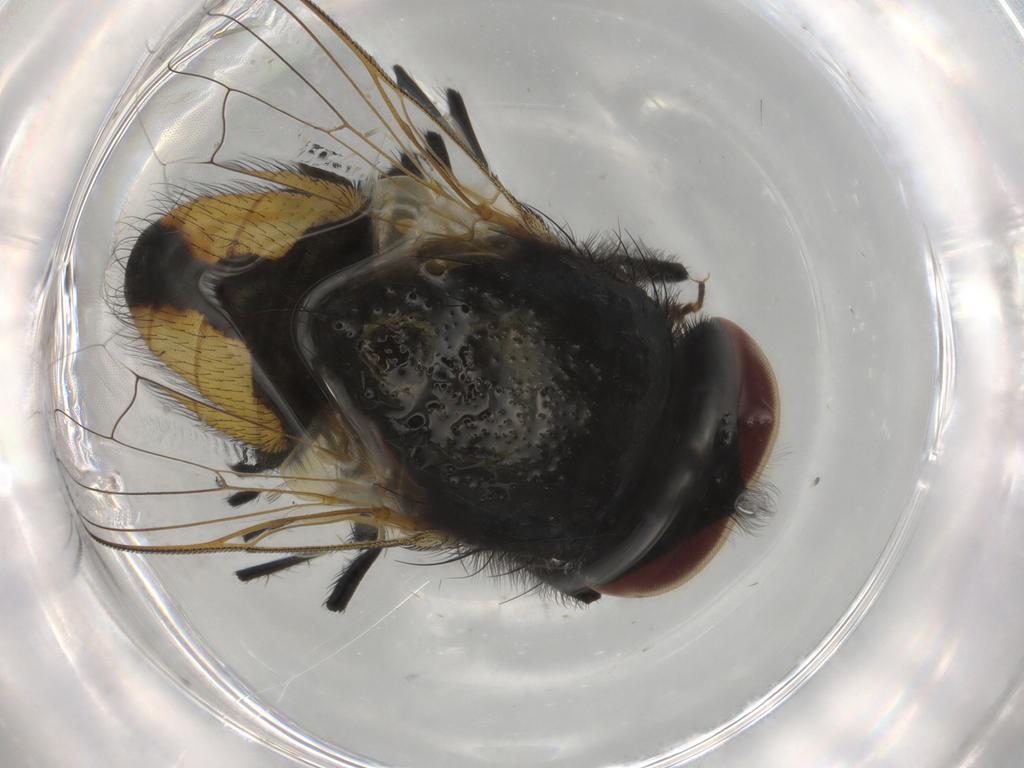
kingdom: Animalia
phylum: Arthropoda
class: Insecta
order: Diptera
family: Muscidae
